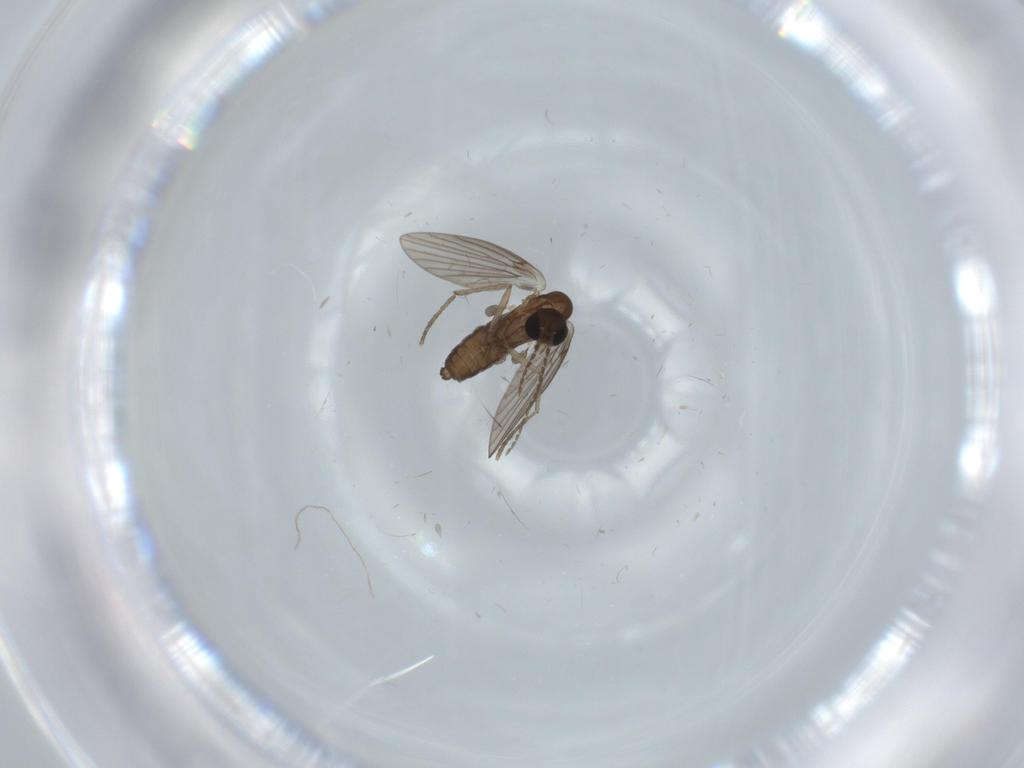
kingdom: Animalia
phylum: Arthropoda
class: Insecta
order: Diptera
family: Psychodidae
